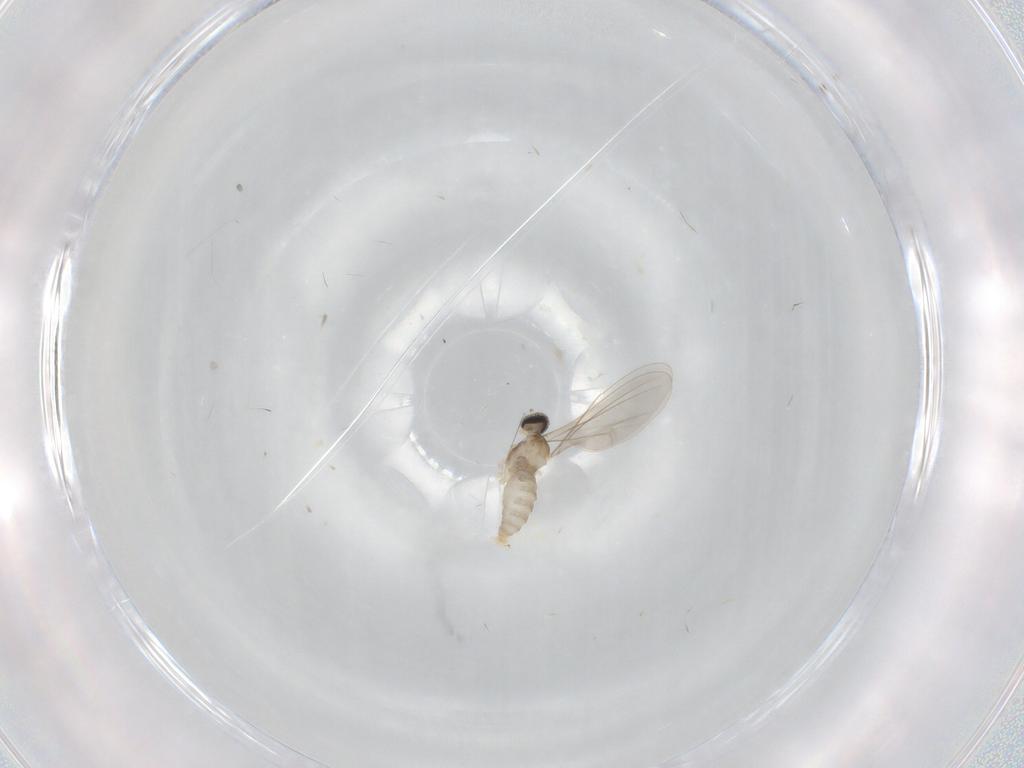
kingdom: Animalia
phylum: Arthropoda
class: Insecta
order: Diptera
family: Cecidomyiidae
